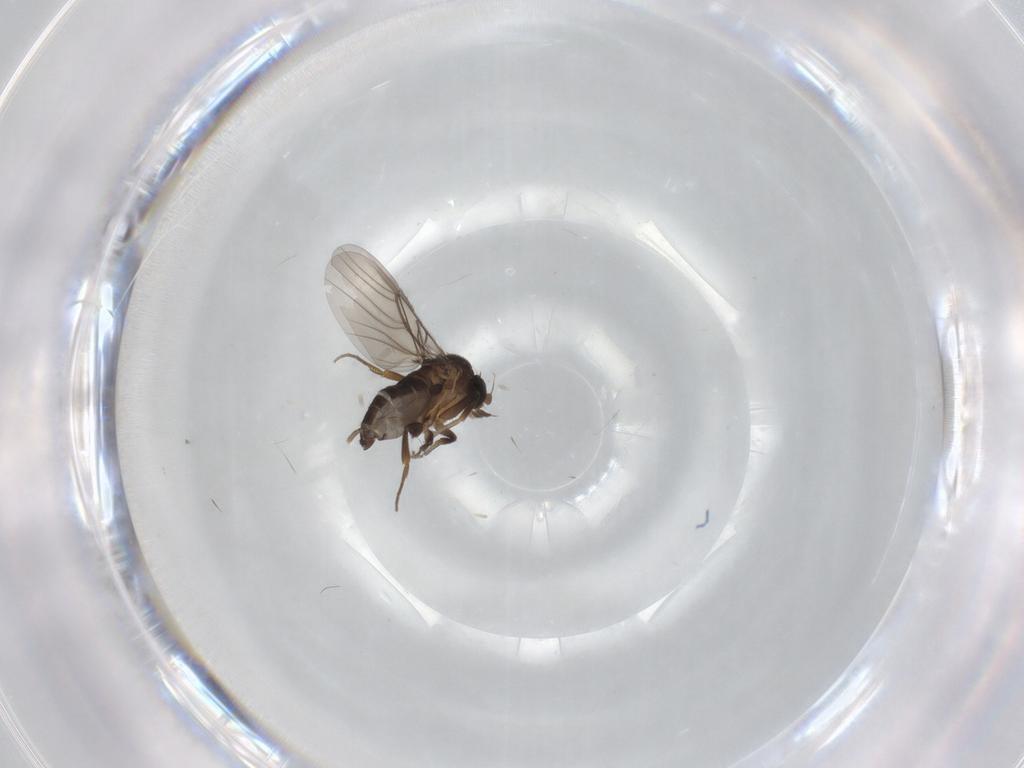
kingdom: Animalia
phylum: Arthropoda
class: Insecta
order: Diptera
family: Phoridae
